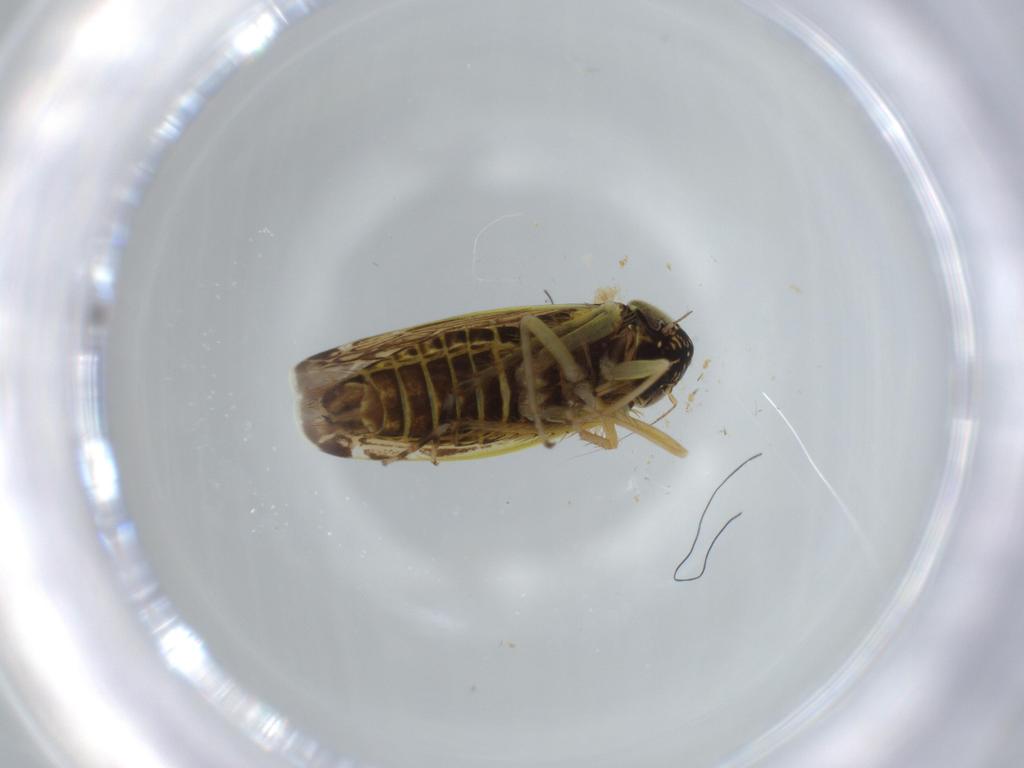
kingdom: Animalia
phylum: Arthropoda
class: Insecta
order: Hemiptera
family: Cicadellidae
